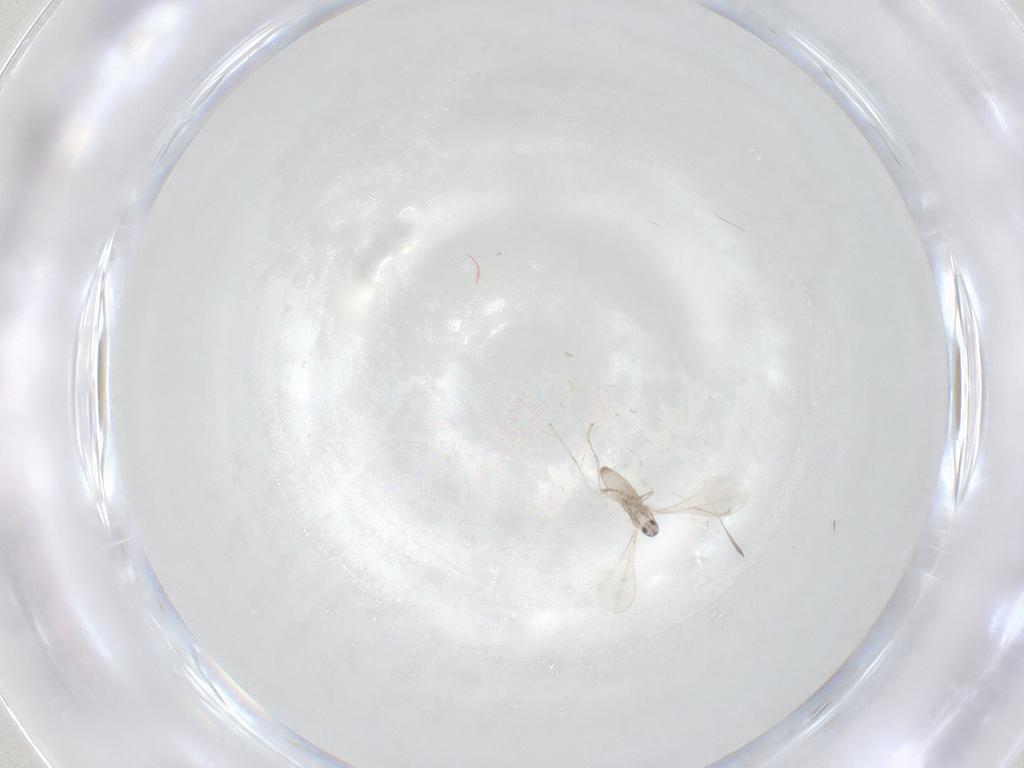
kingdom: Animalia
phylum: Arthropoda
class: Insecta
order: Diptera
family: Cecidomyiidae
